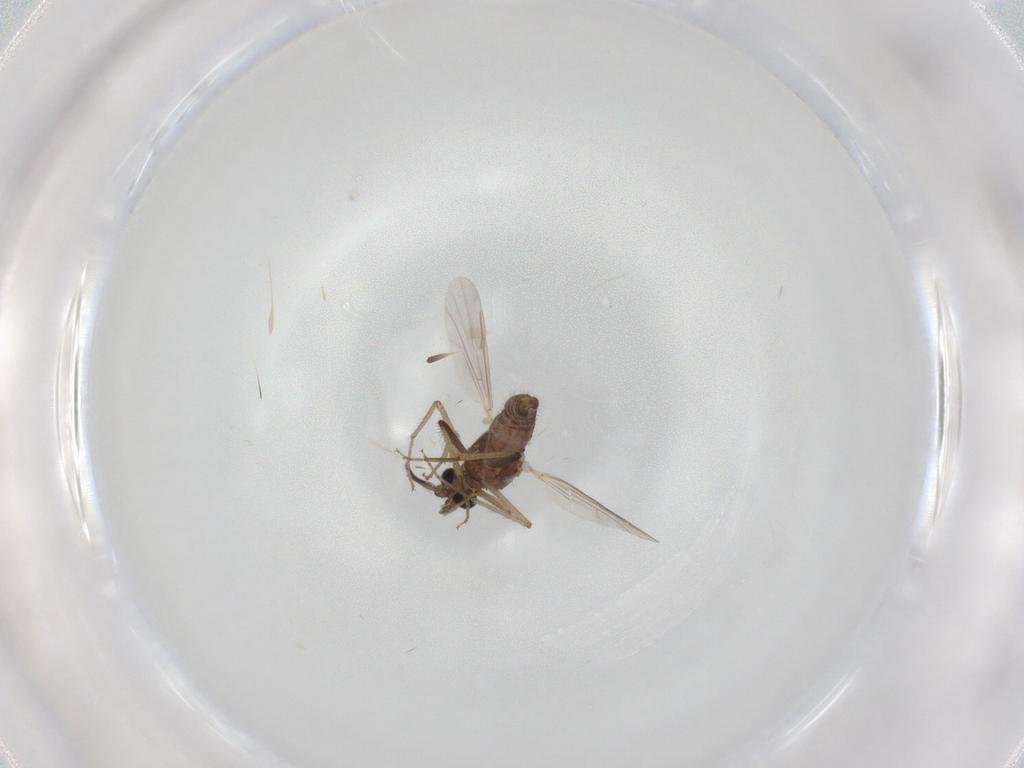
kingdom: Animalia
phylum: Arthropoda
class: Insecta
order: Diptera
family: Ceratopogonidae
